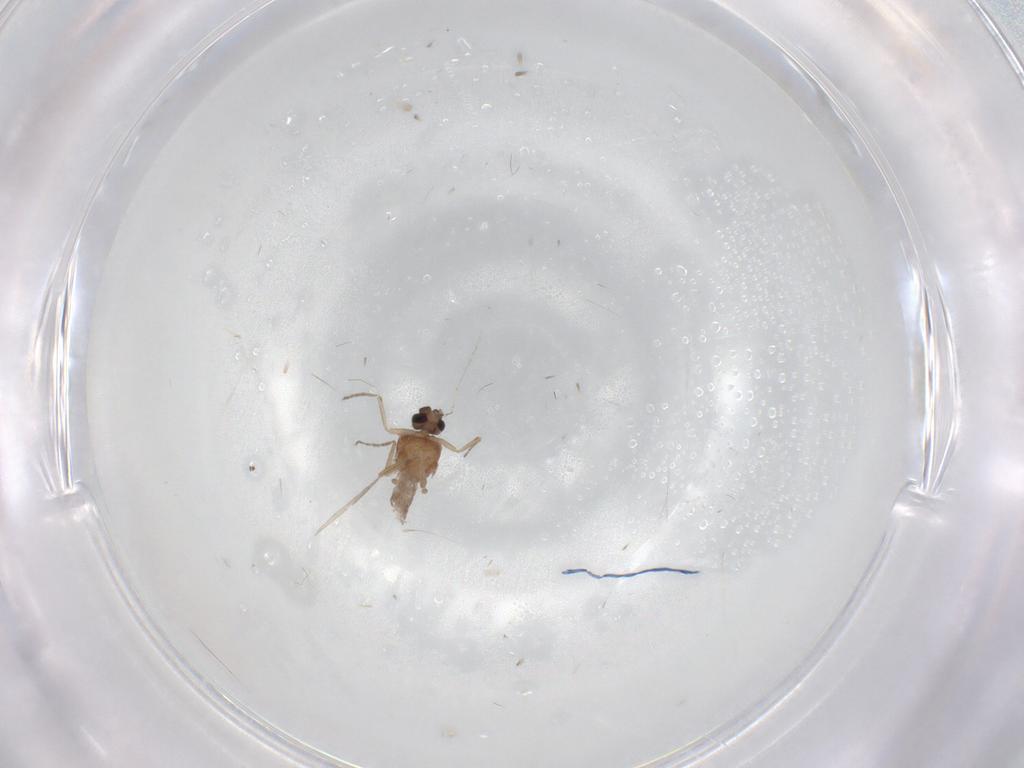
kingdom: Animalia
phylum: Arthropoda
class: Insecta
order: Diptera
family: Ceratopogonidae
